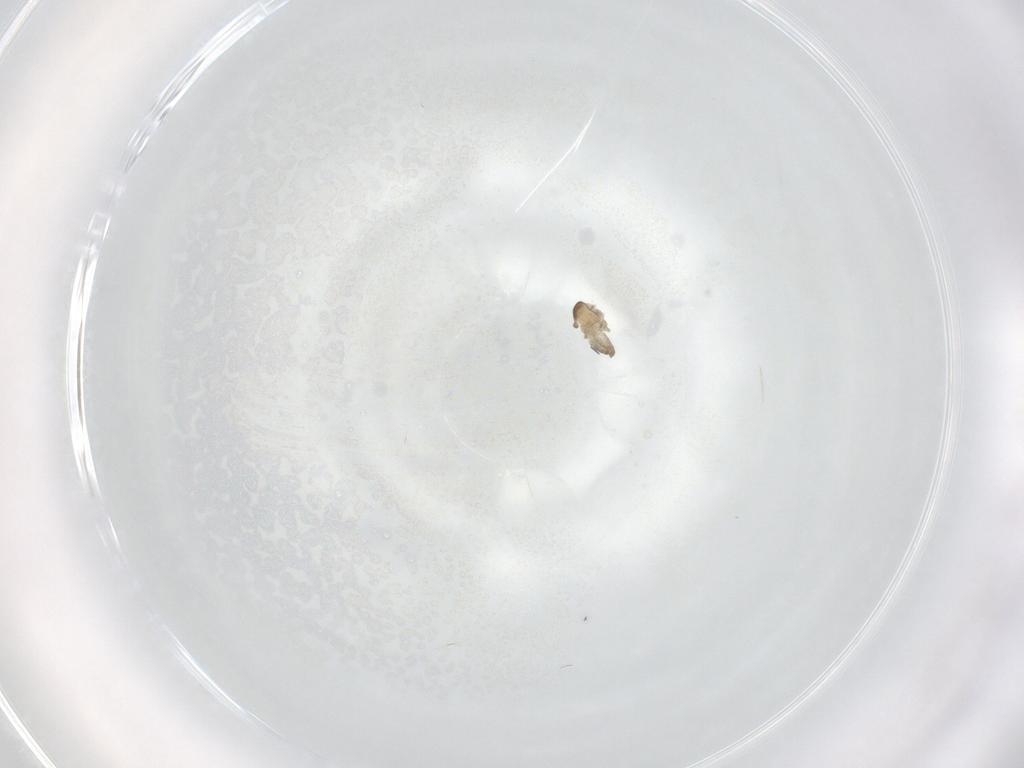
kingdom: Animalia
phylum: Arthropoda
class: Insecta
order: Diptera
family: Cecidomyiidae
